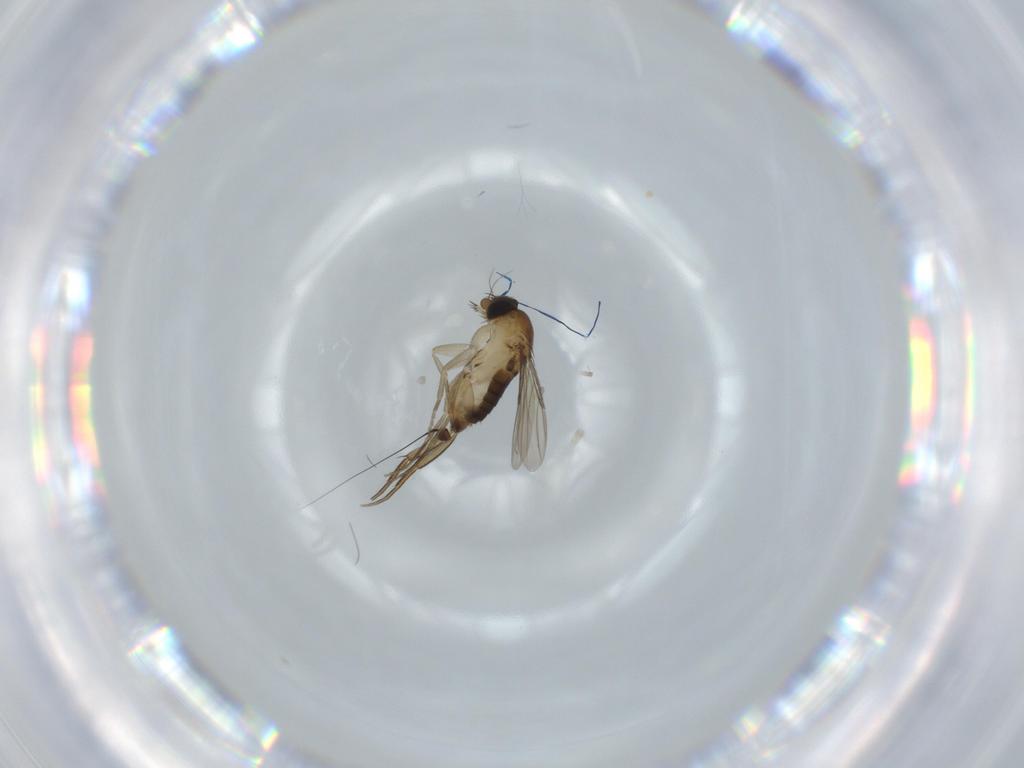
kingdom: Animalia
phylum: Arthropoda
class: Insecta
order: Diptera
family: Phoridae
